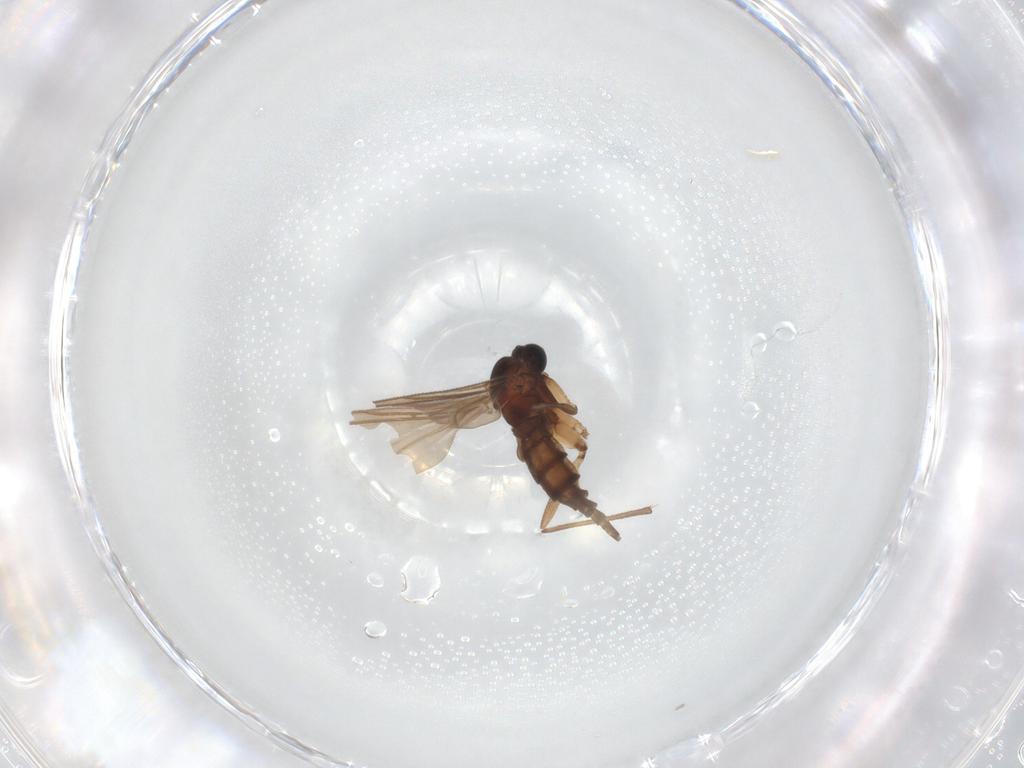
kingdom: Animalia
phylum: Arthropoda
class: Insecta
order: Diptera
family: Sciaridae
